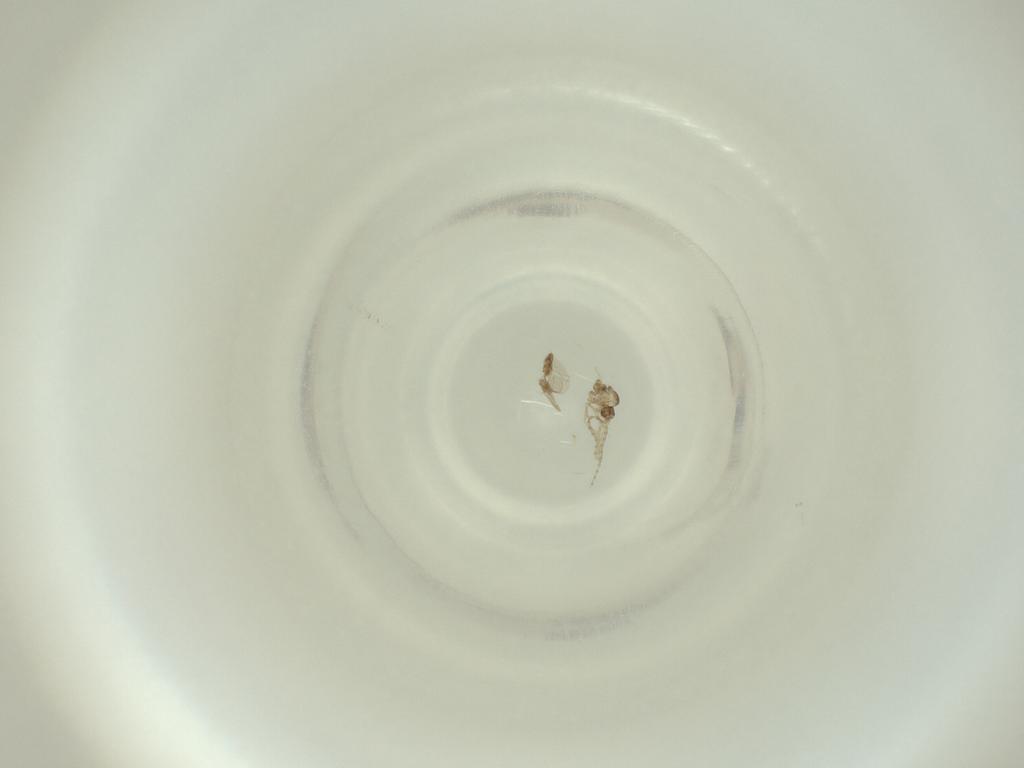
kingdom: Animalia
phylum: Arthropoda
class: Insecta
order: Diptera
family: Cecidomyiidae
